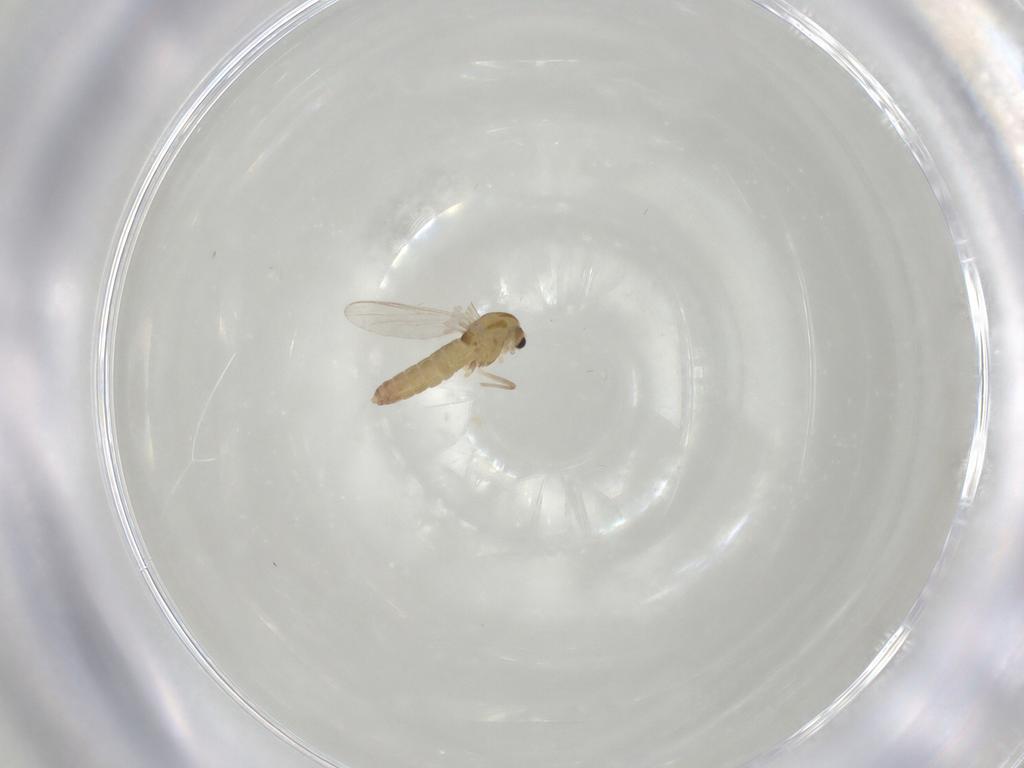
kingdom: Animalia
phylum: Arthropoda
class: Insecta
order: Diptera
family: Chironomidae
